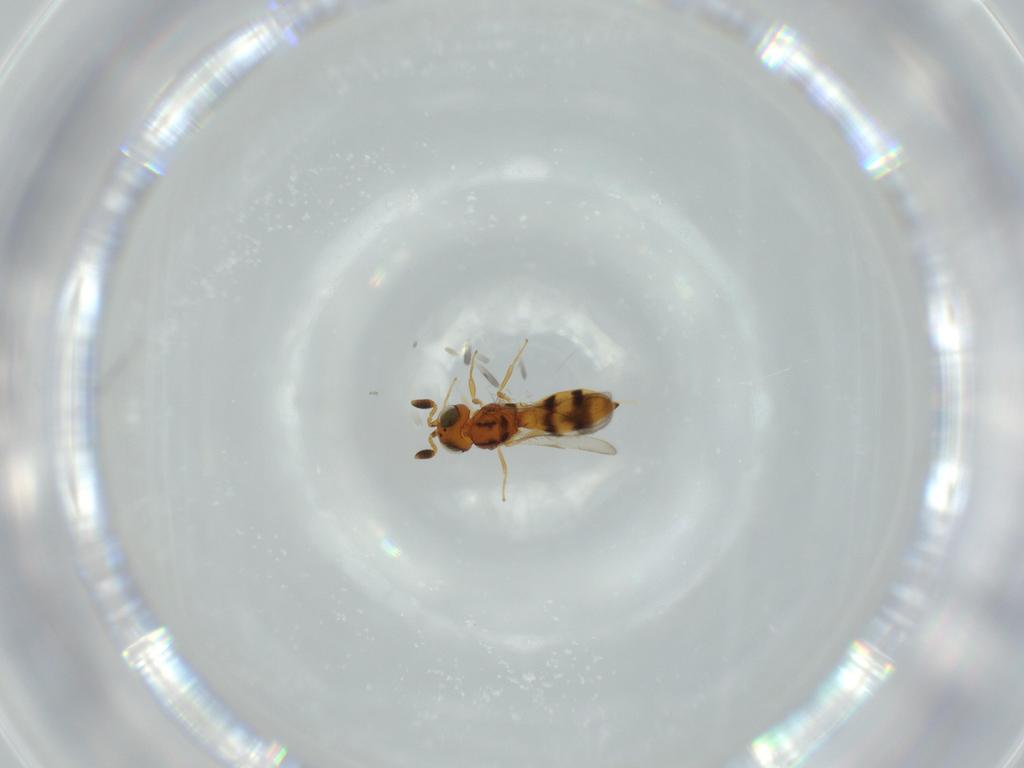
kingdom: Animalia
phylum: Arthropoda
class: Insecta
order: Hymenoptera
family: Scelionidae
